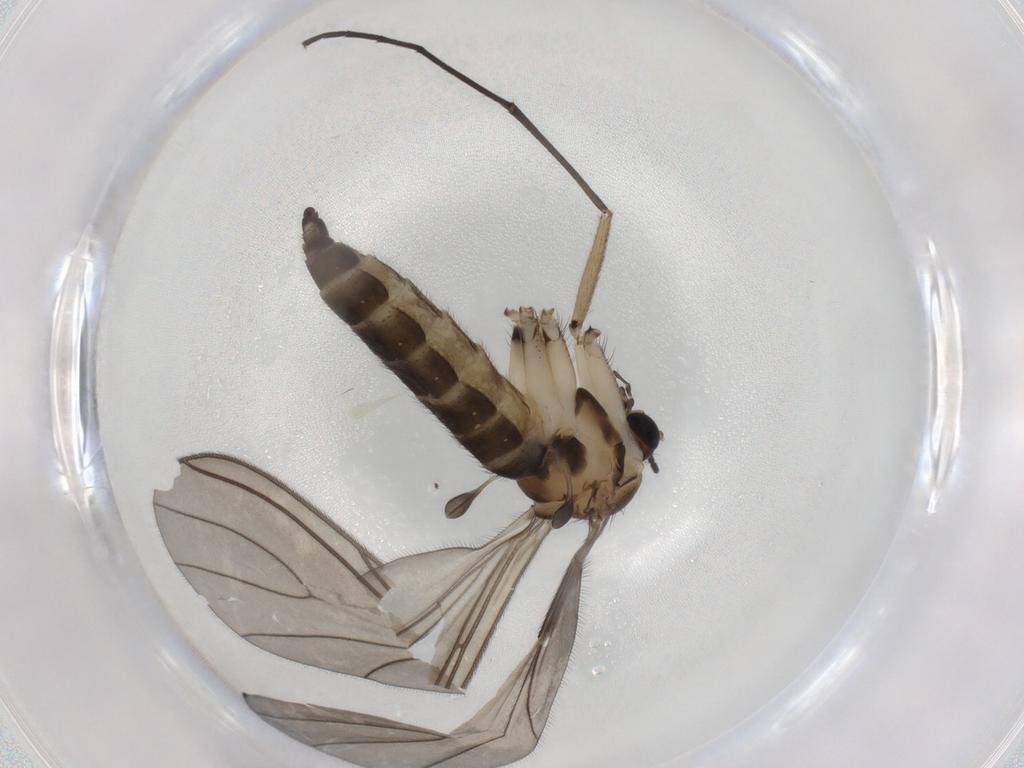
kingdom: Animalia
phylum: Arthropoda
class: Insecta
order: Diptera
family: Sciaridae
